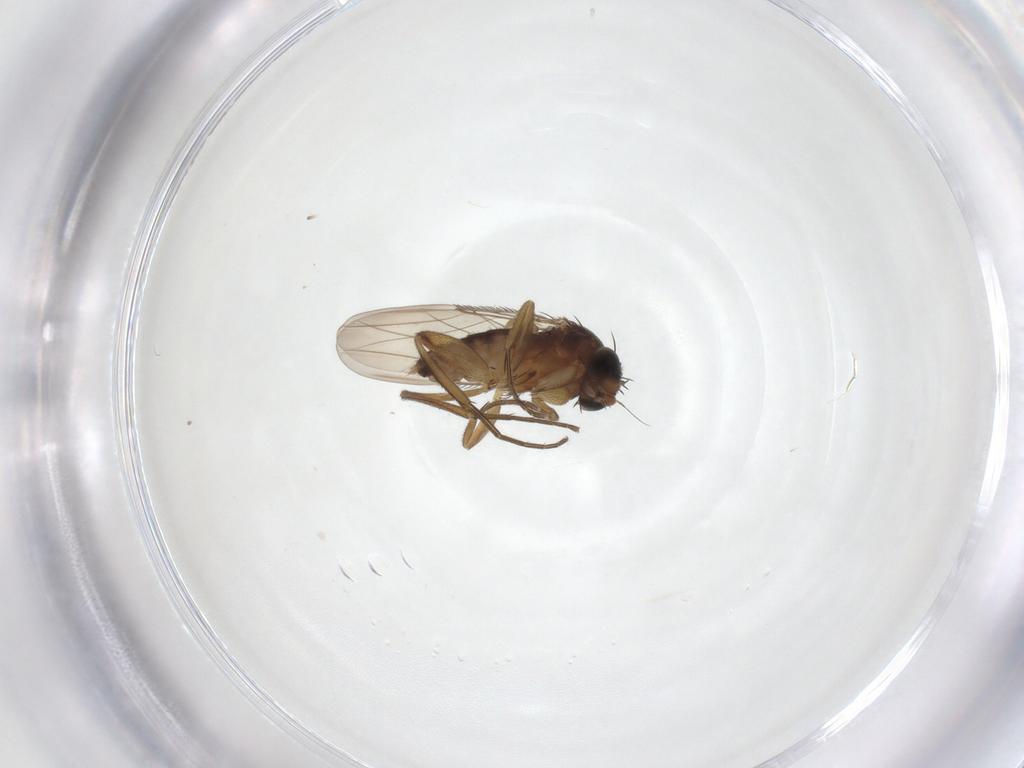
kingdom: Animalia
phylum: Arthropoda
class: Insecta
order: Diptera
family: Phoridae
